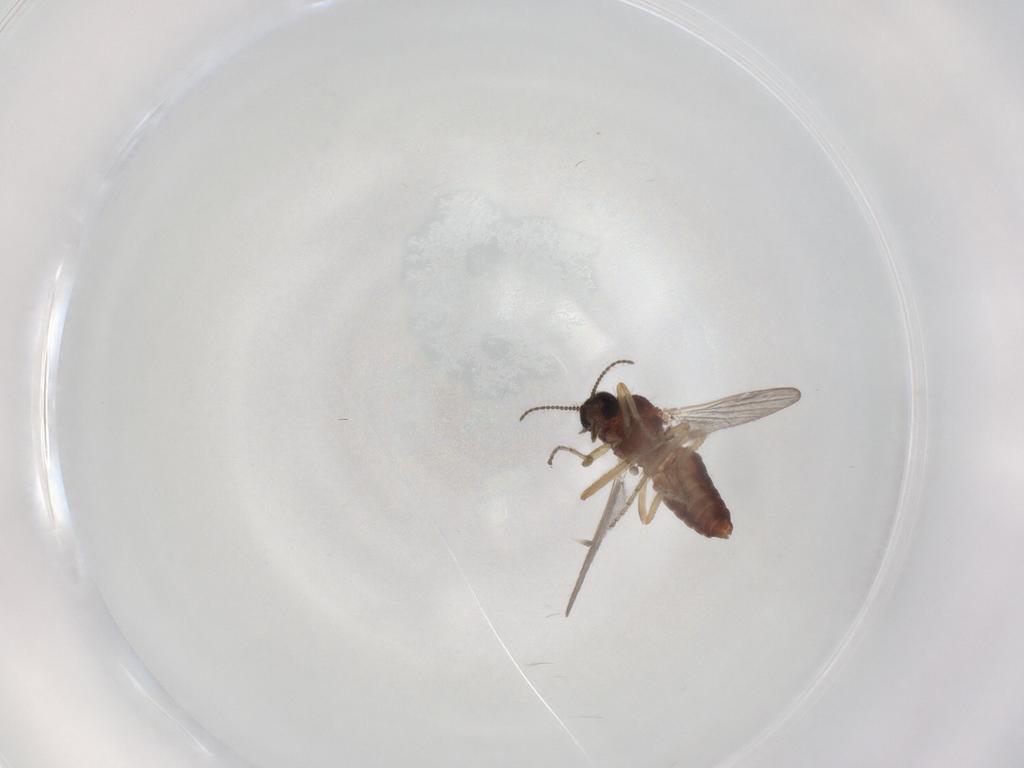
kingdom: Animalia
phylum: Arthropoda
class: Insecta
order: Diptera
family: Ceratopogonidae
